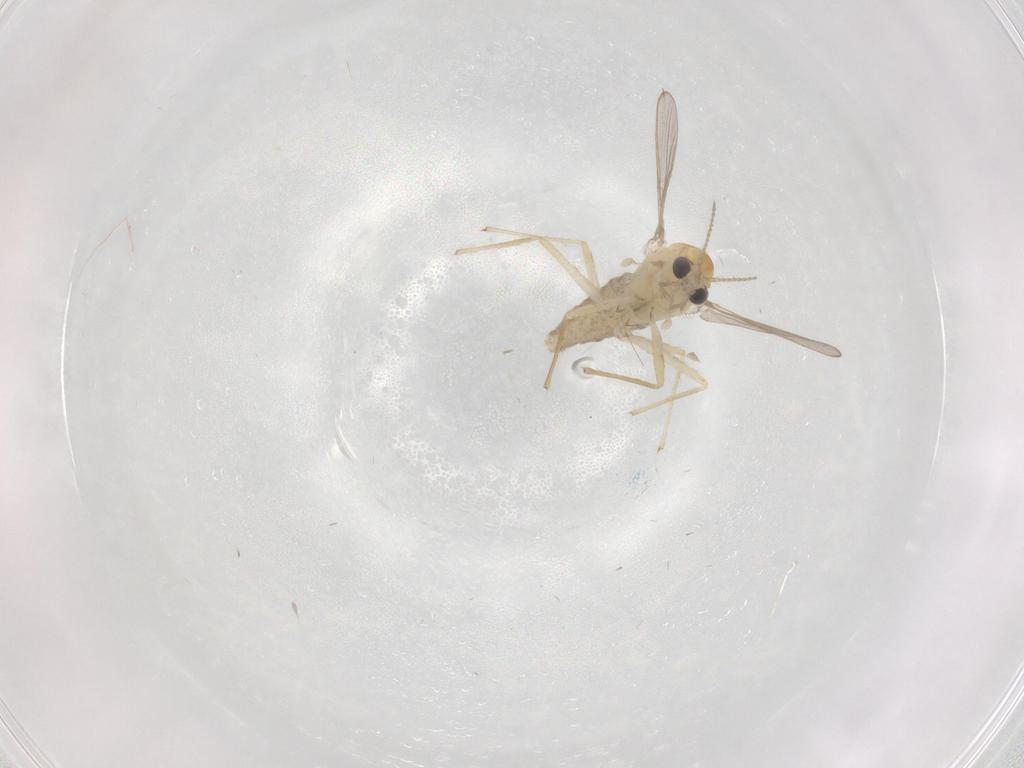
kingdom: Animalia
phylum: Arthropoda
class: Insecta
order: Diptera
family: Chironomidae
